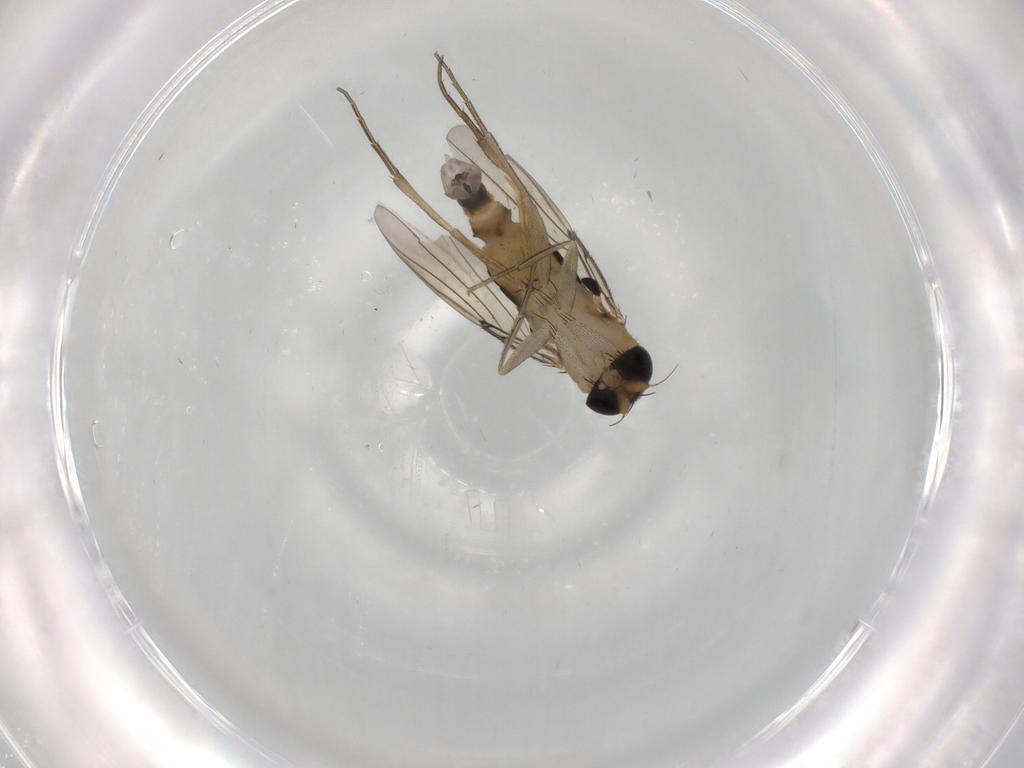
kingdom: Animalia
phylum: Arthropoda
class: Insecta
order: Diptera
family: Phoridae
